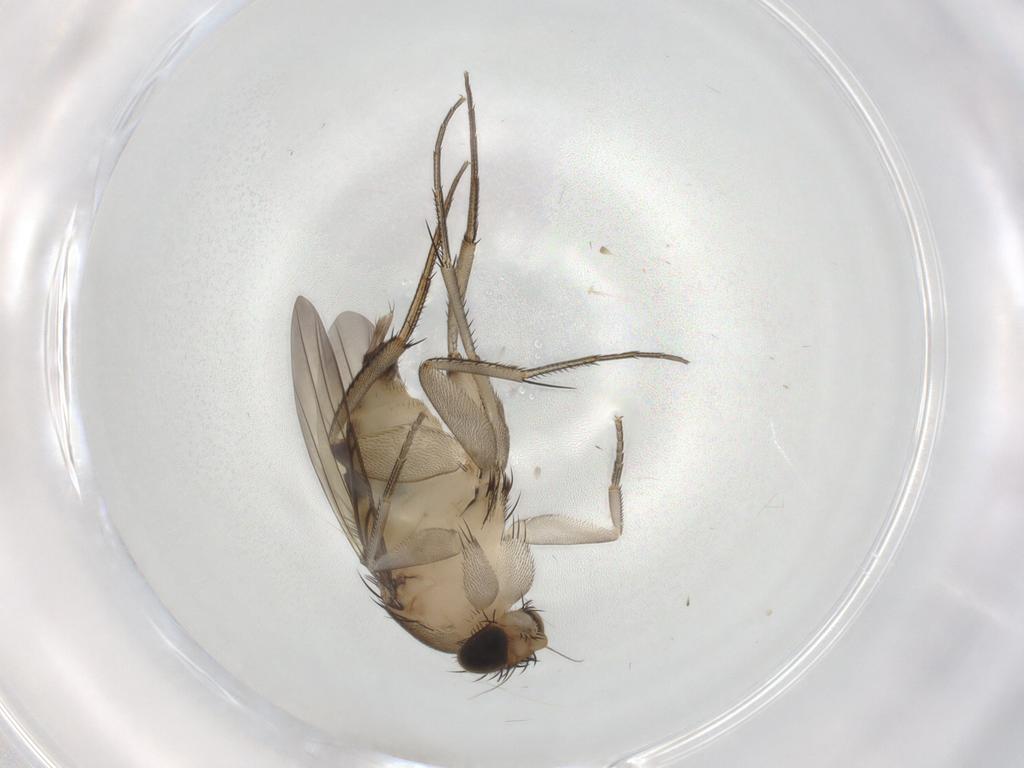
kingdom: Animalia
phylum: Arthropoda
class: Insecta
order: Diptera
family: Phoridae
